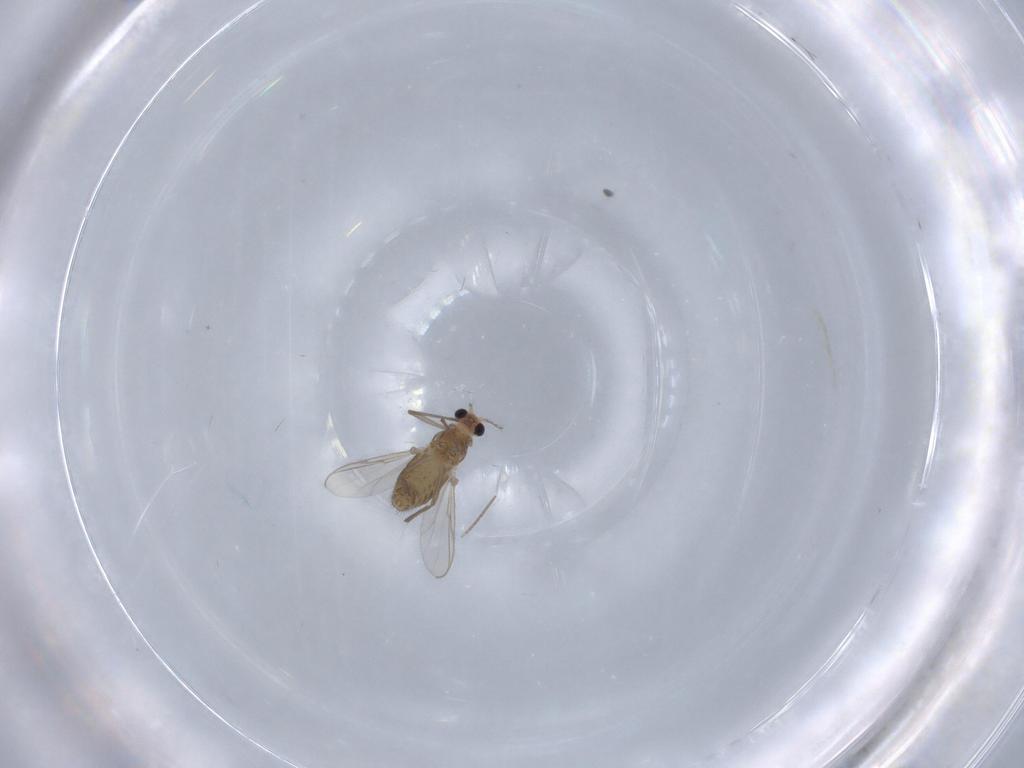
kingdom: Animalia
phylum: Arthropoda
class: Insecta
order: Diptera
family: Chironomidae
